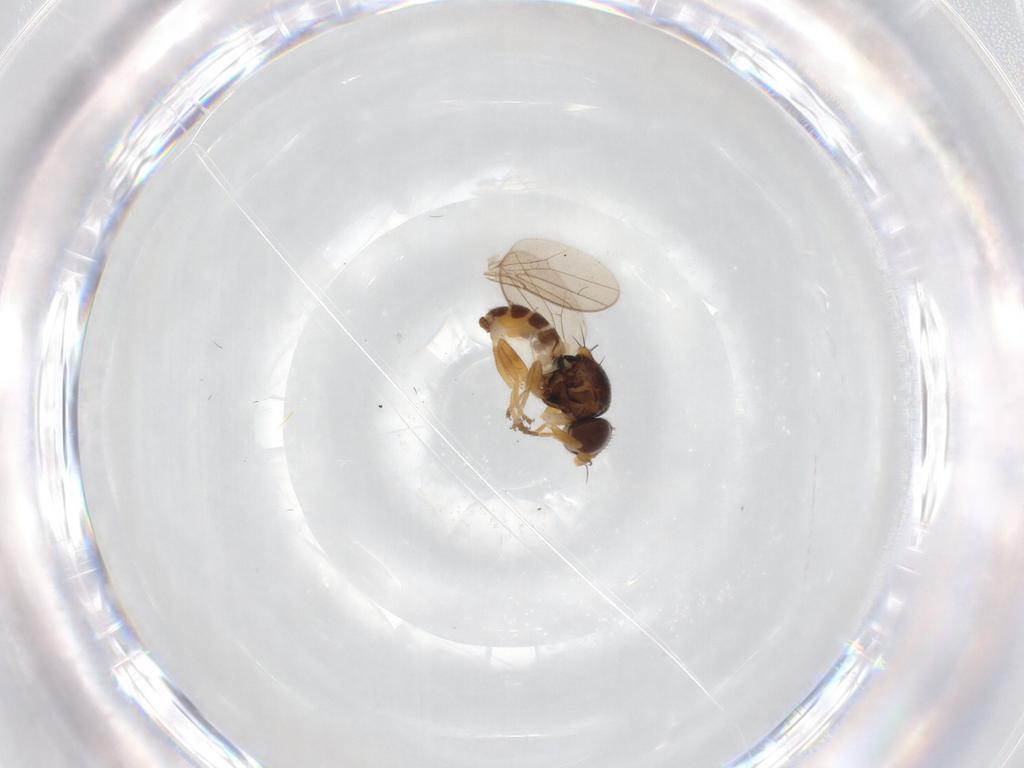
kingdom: Animalia
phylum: Arthropoda
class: Insecta
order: Diptera
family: Chloropidae
